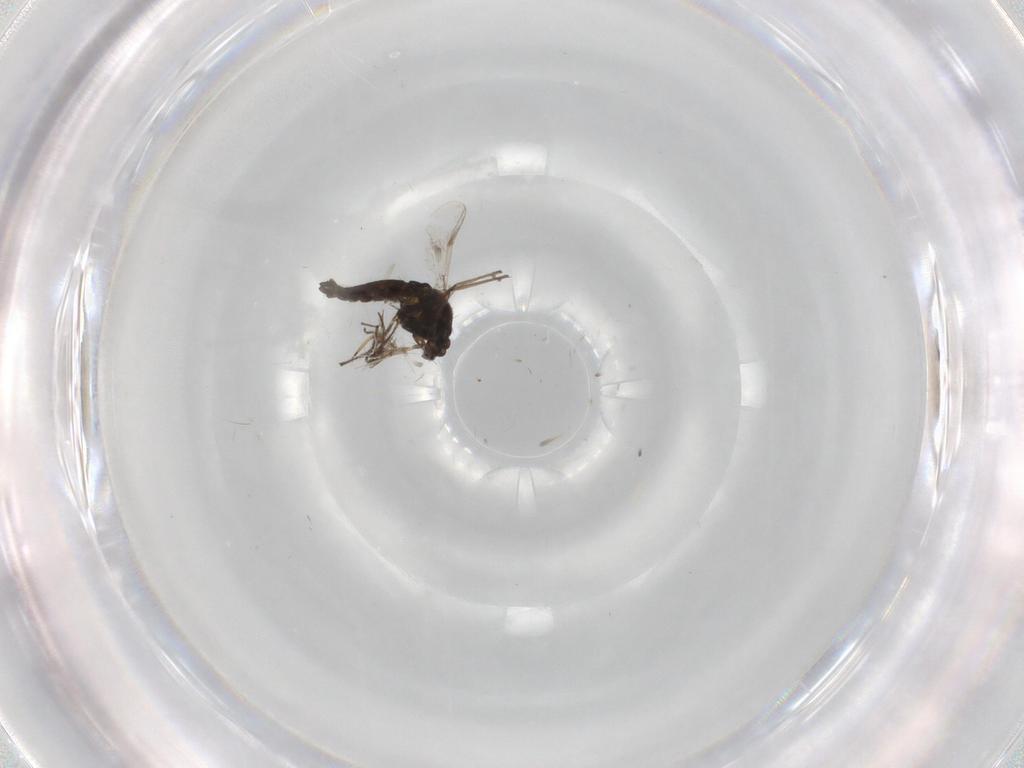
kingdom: Animalia
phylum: Arthropoda
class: Insecta
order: Diptera
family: Chironomidae
